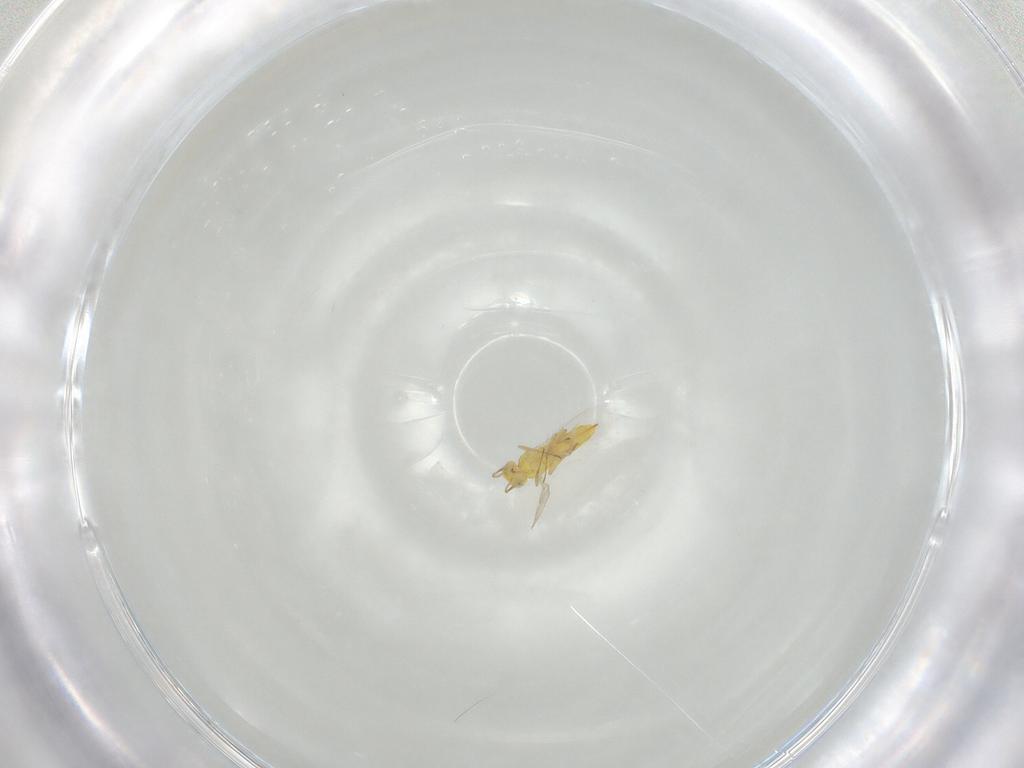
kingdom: Animalia
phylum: Arthropoda
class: Insecta
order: Hymenoptera
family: Aphelinidae
